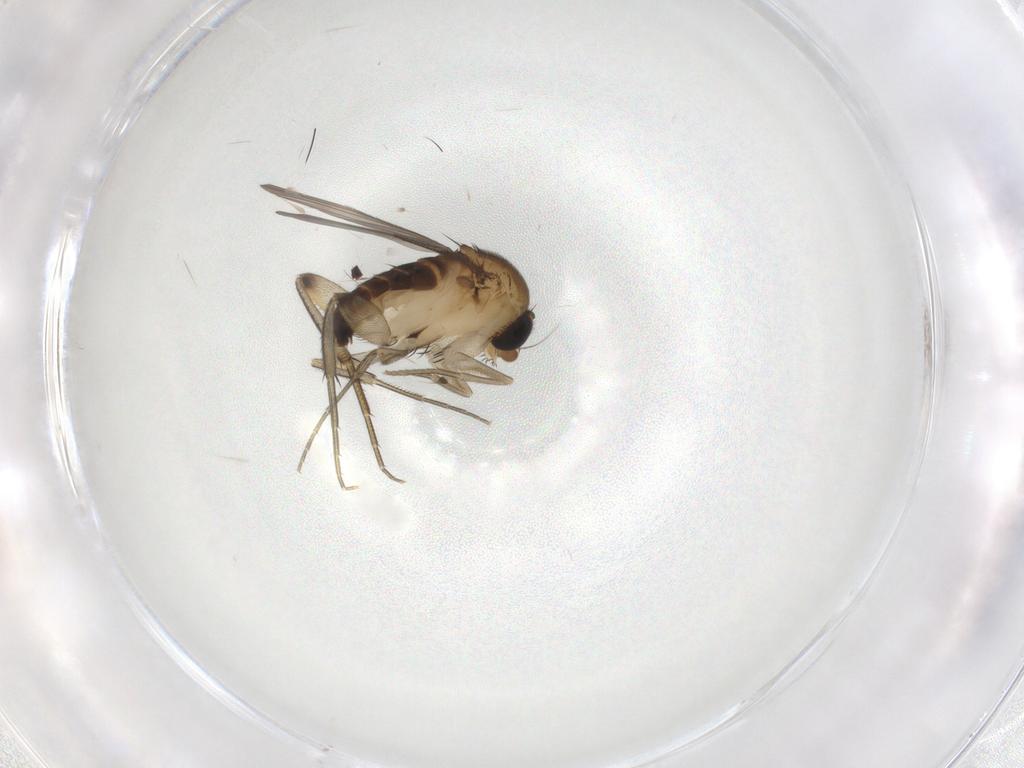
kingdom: Animalia
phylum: Arthropoda
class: Insecta
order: Diptera
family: Phoridae
